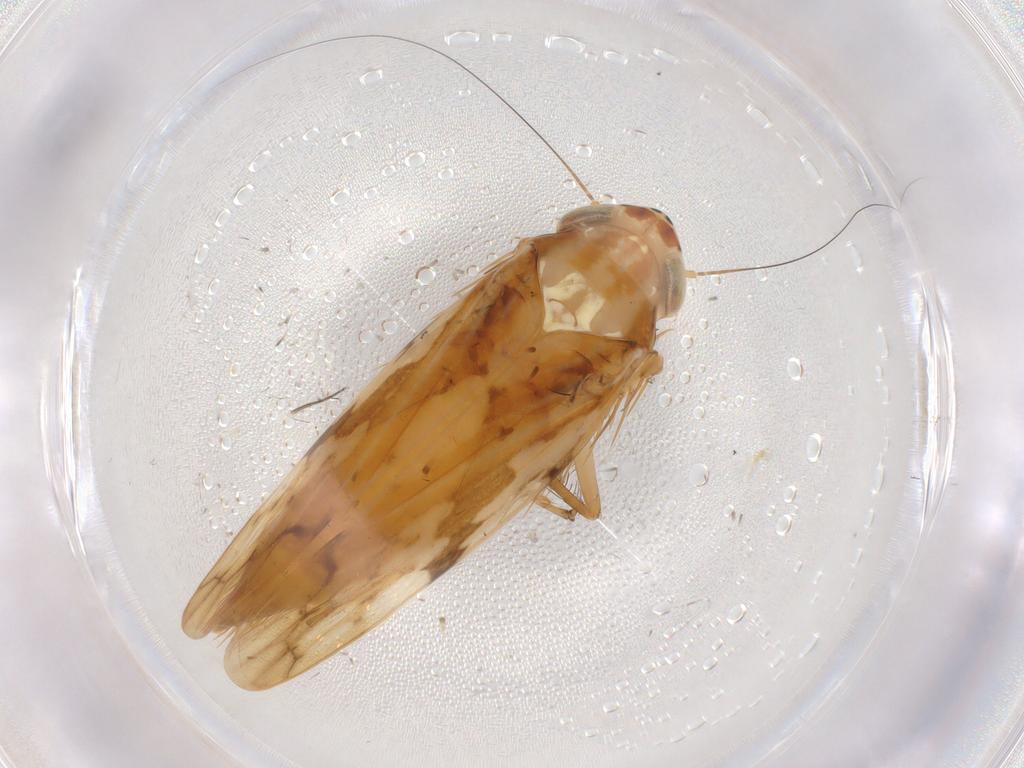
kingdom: Animalia
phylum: Arthropoda
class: Insecta
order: Hemiptera
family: Cicadellidae
